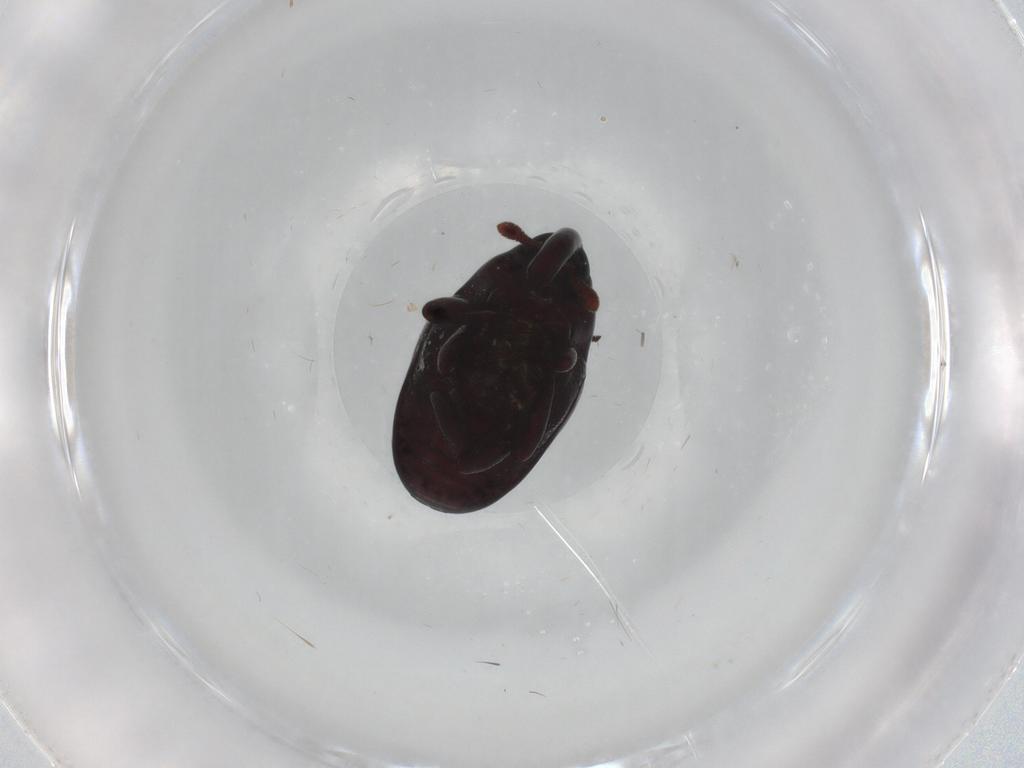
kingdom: Animalia
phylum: Arthropoda
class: Insecta
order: Coleoptera
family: Curculionidae
